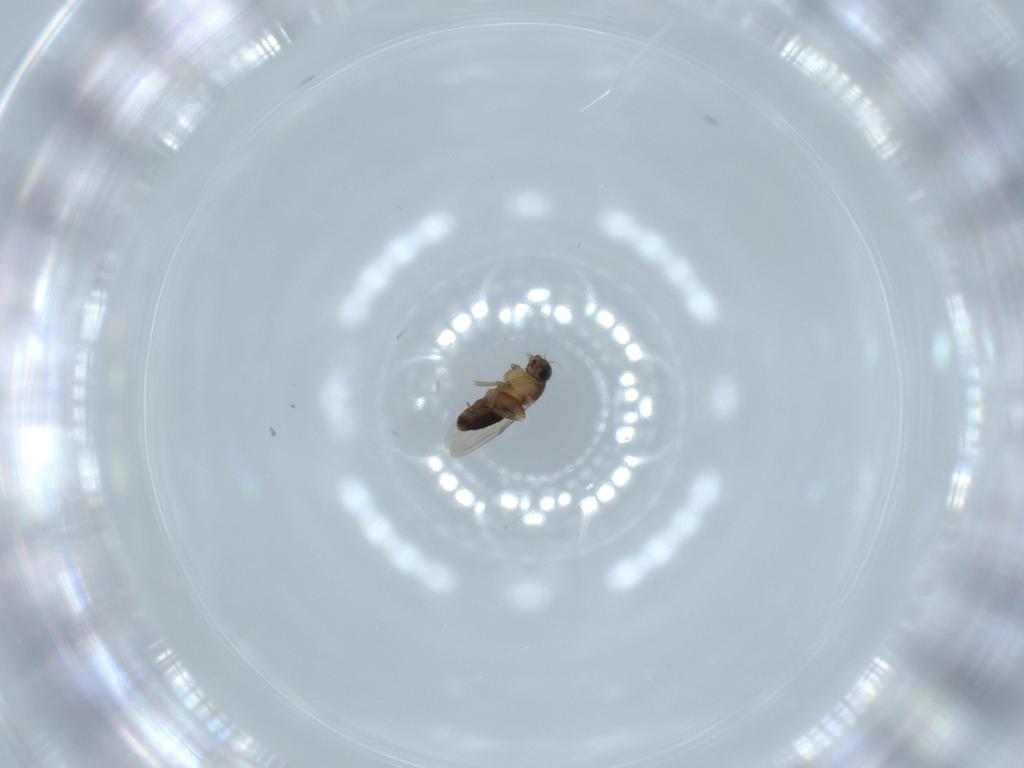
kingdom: Animalia
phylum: Arthropoda
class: Insecta
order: Diptera
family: Phoridae
